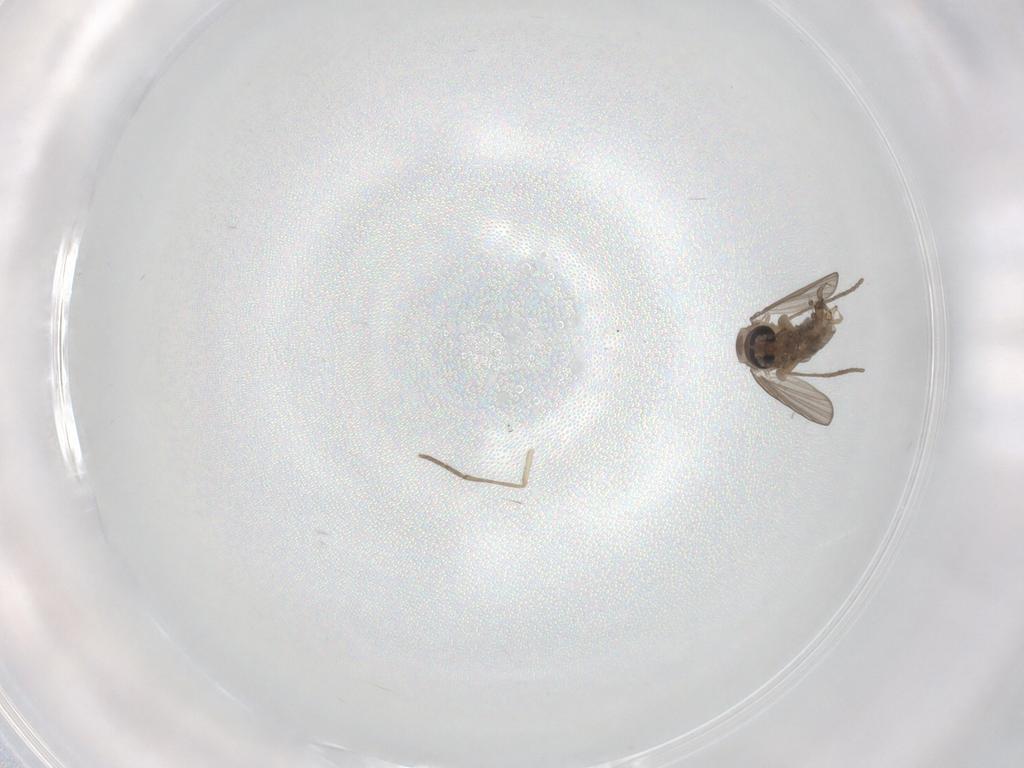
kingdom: Animalia
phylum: Arthropoda
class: Insecta
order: Diptera
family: Psychodidae
